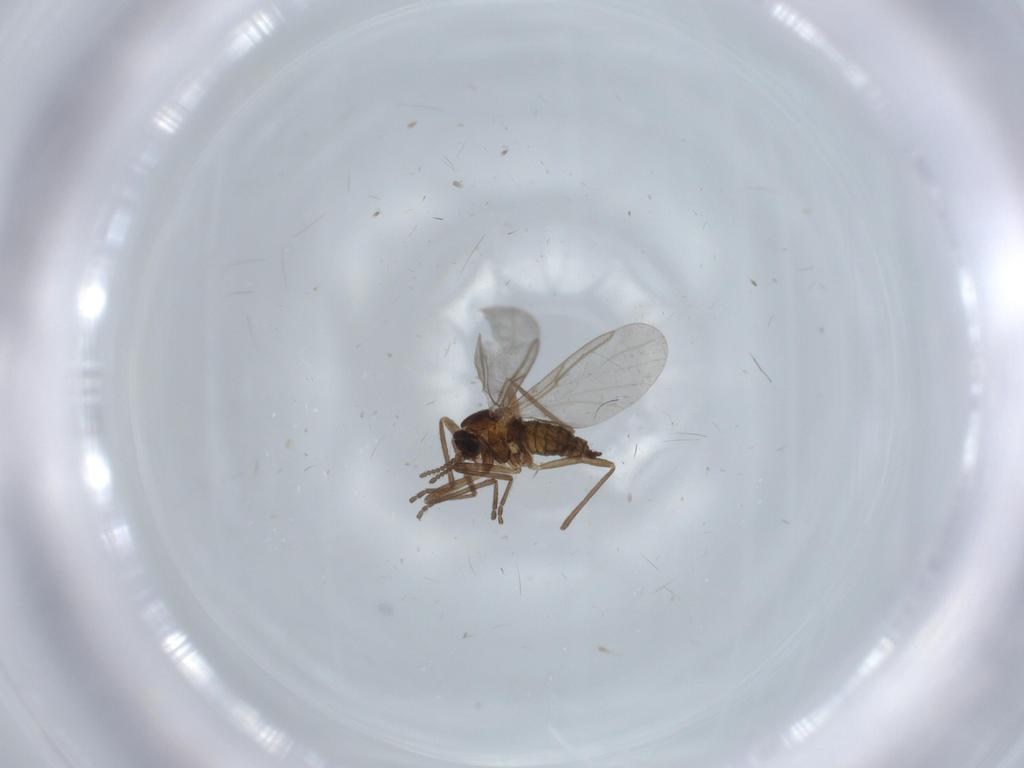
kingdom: Animalia
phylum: Arthropoda
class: Insecta
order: Diptera
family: Cecidomyiidae
